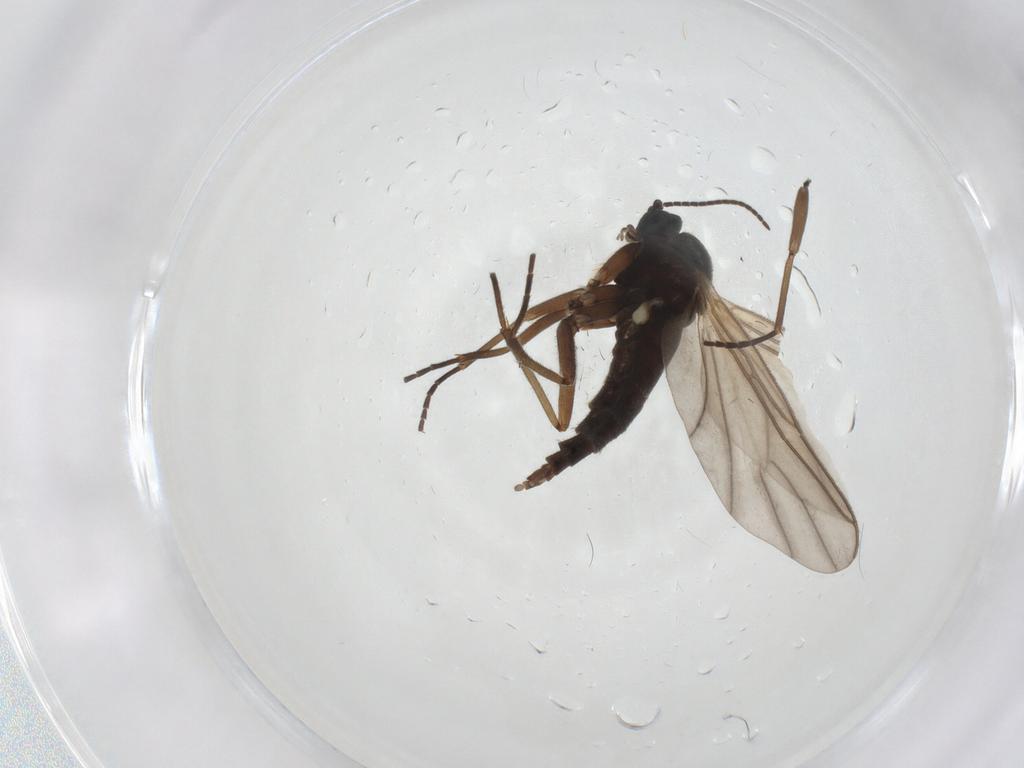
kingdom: Animalia
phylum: Arthropoda
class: Insecta
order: Diptera
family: Sciaridae
